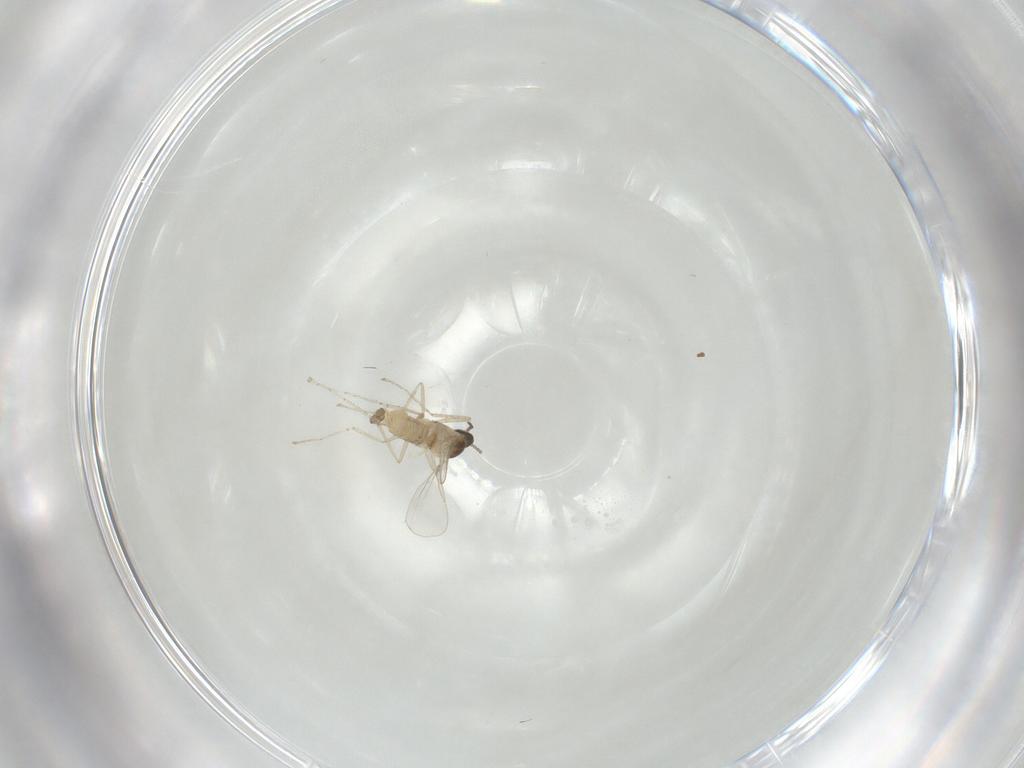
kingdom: Animalia
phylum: Arthropoda
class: Insecta
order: Diptera
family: Cecidomyiidae
